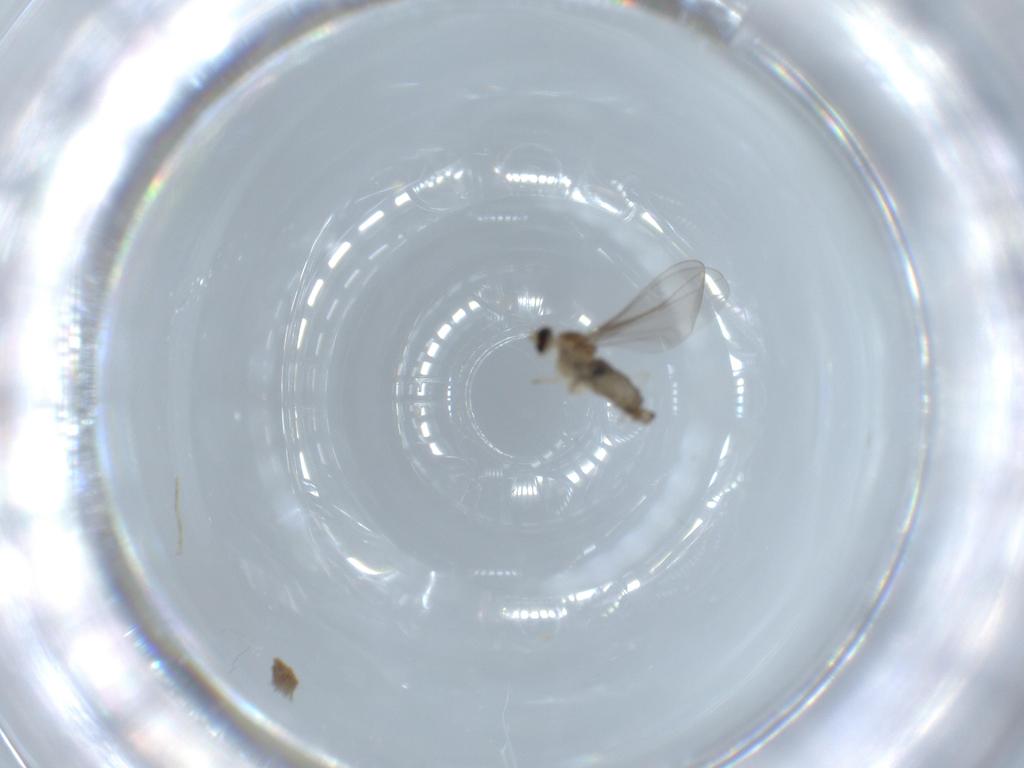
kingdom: Animalia
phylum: Arthropoda
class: Insecta
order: Diptera
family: Cecidomyiidae
